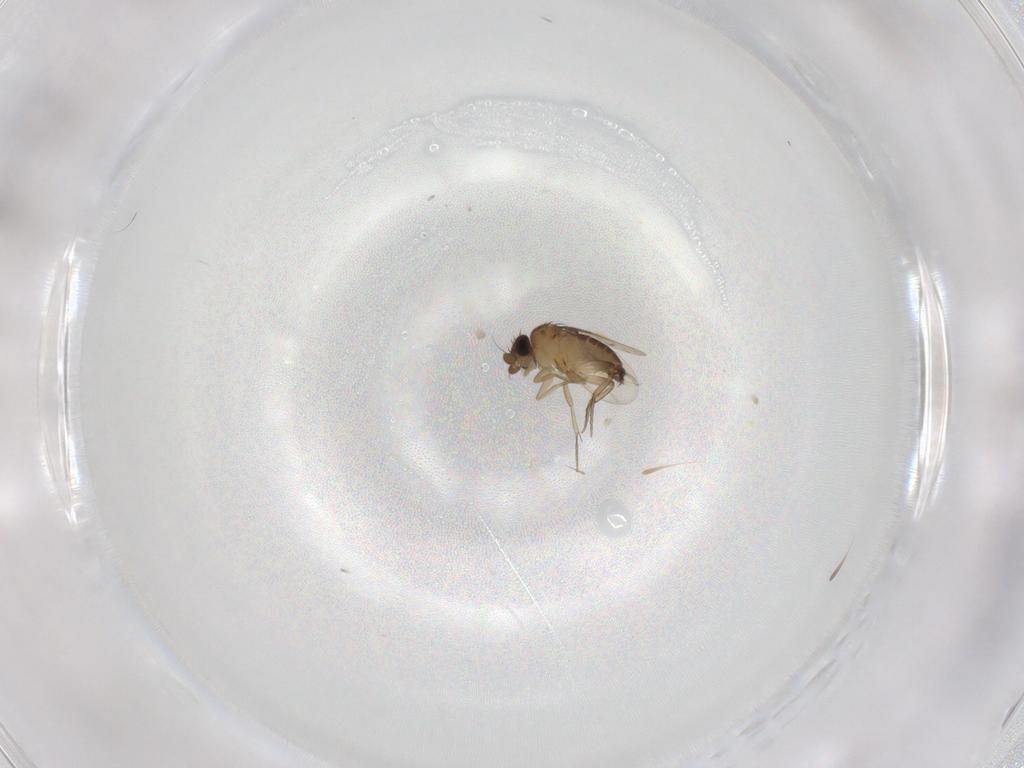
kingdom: Animalia
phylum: Arthropoda
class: Insecta
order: Diptera
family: Phoridae
